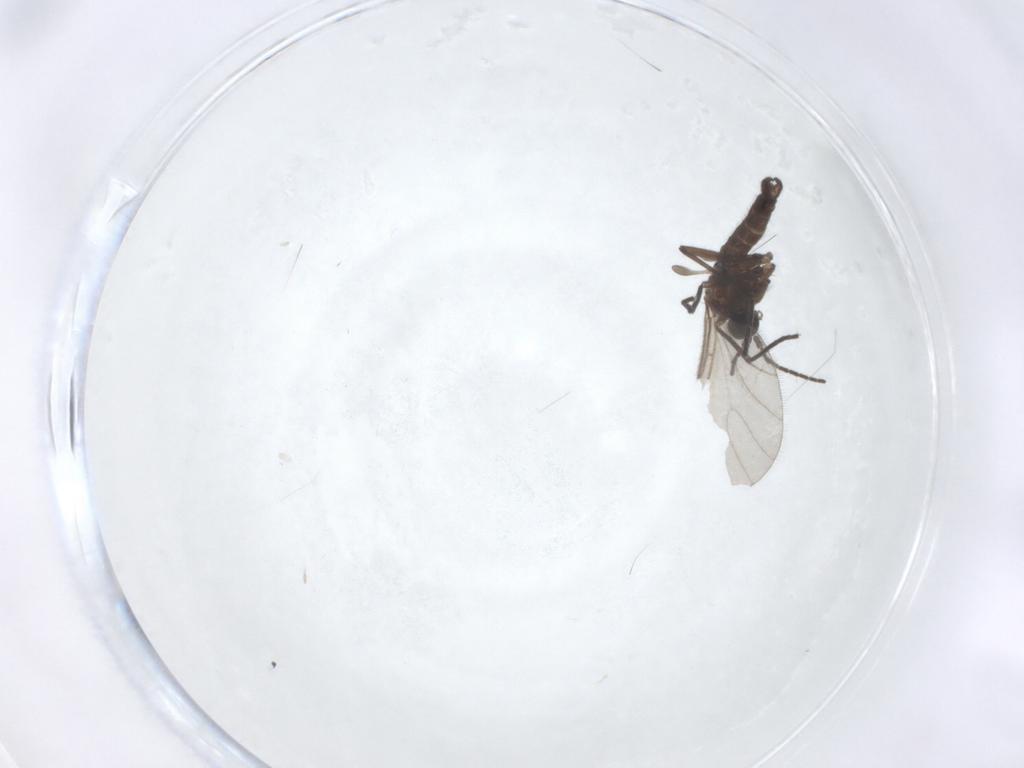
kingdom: Animalia
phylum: Arthropoda
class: Insecta
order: Diptera
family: Sciaridae
